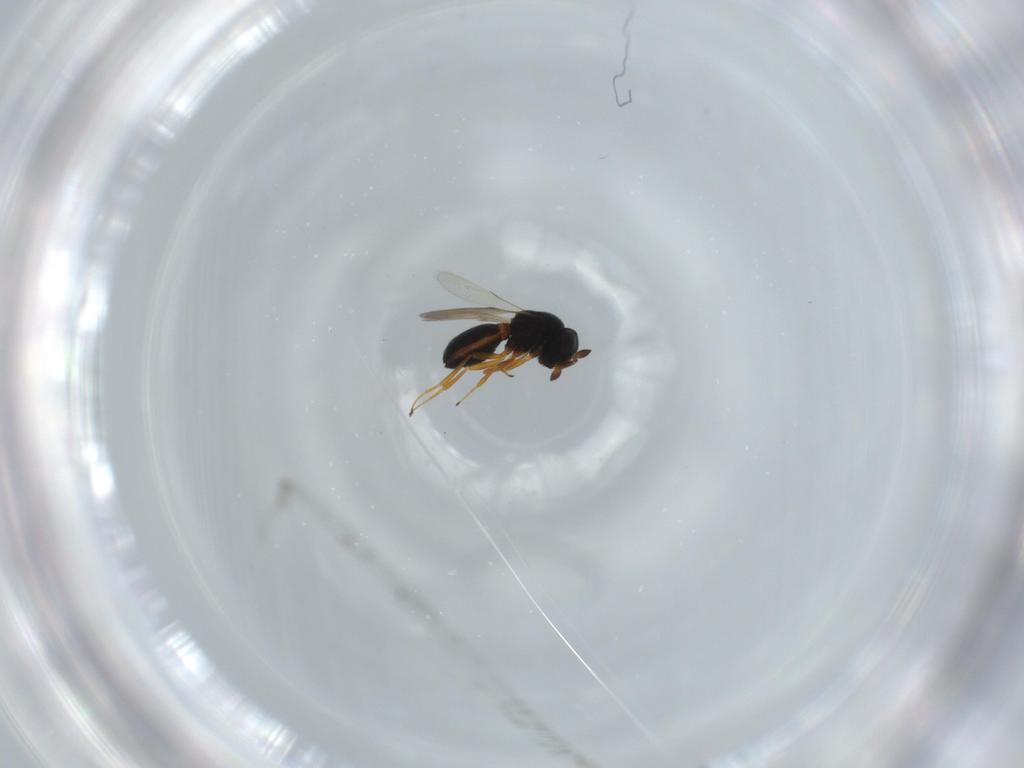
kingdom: Animalia
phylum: Arthropoda
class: Insecta
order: Hymenoptera
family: Scelionidae
